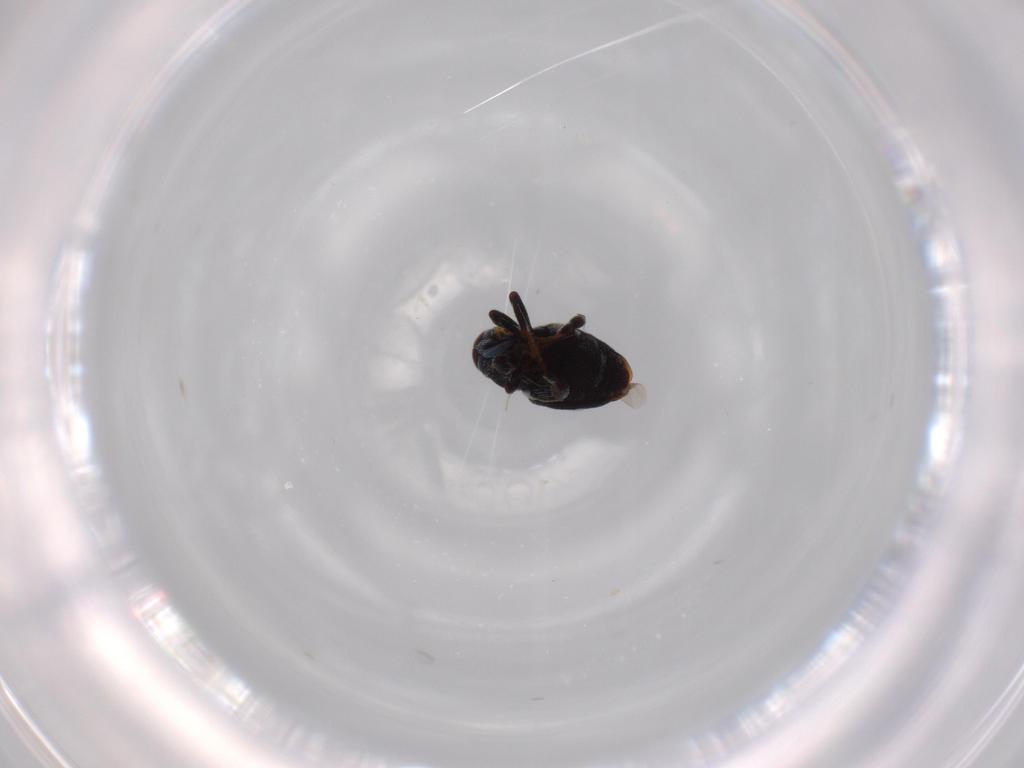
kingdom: Animalia
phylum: Arthropoda
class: Insecta
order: Coleoptera
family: Curculionidae
